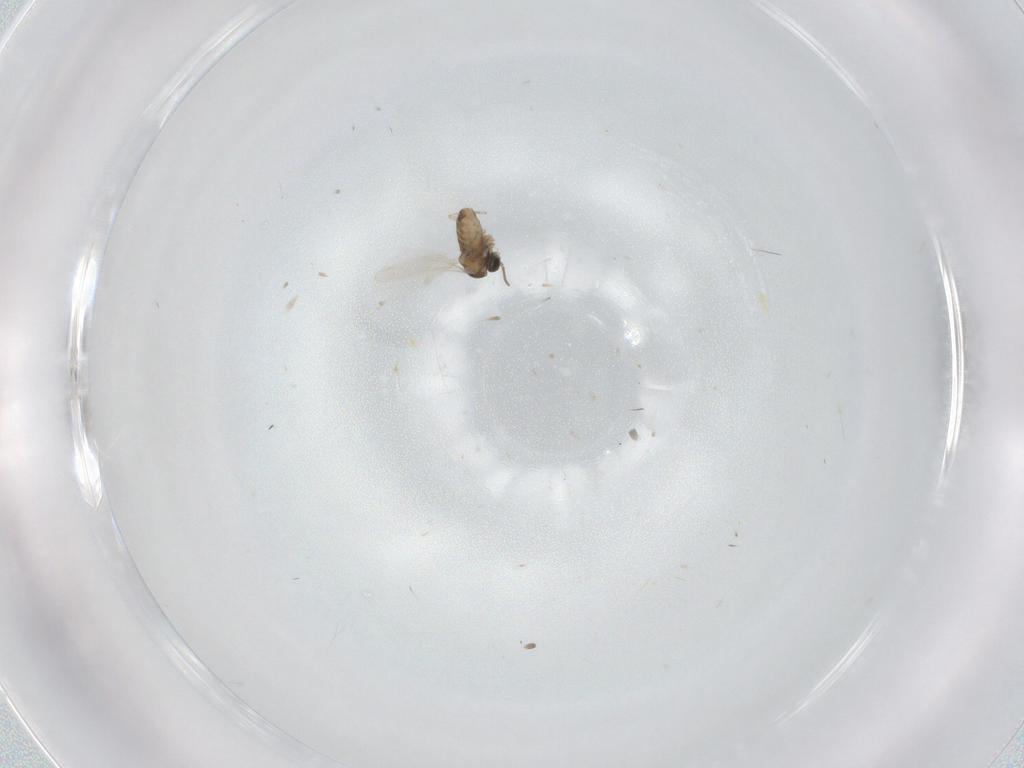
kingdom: Animalia
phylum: Arthropoda
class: Insecta
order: Diptera
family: Cecidomyiidae
